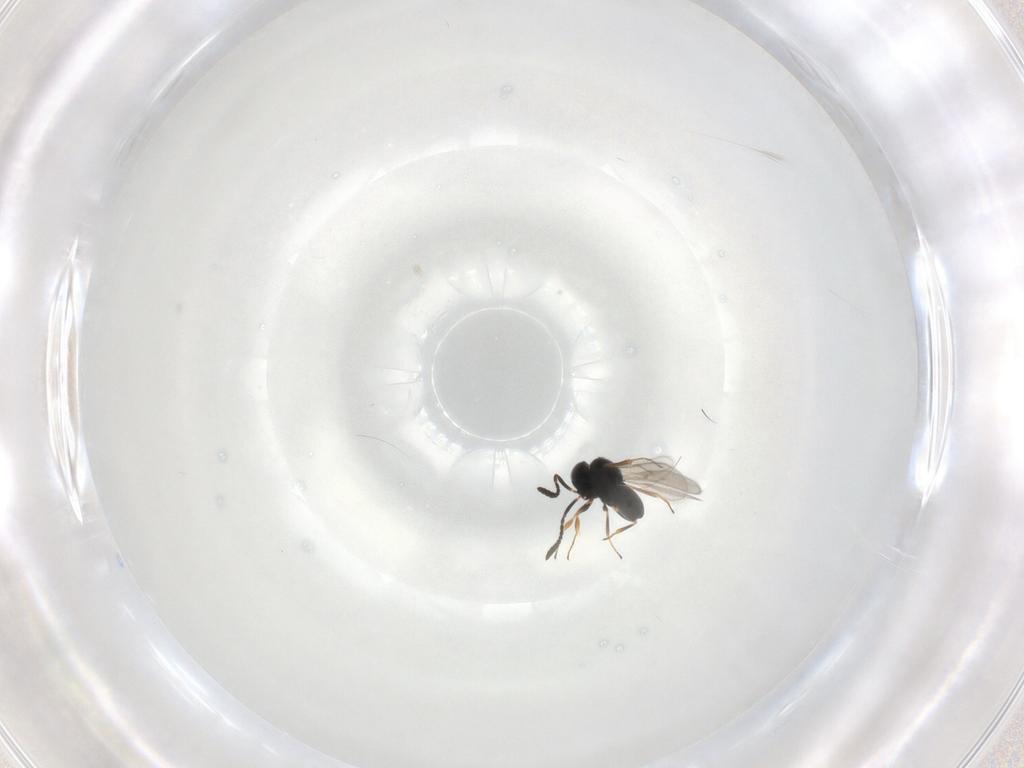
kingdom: Animalia
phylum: Arthropoda
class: Insecta
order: Hymenoptera
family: Scelionidae
